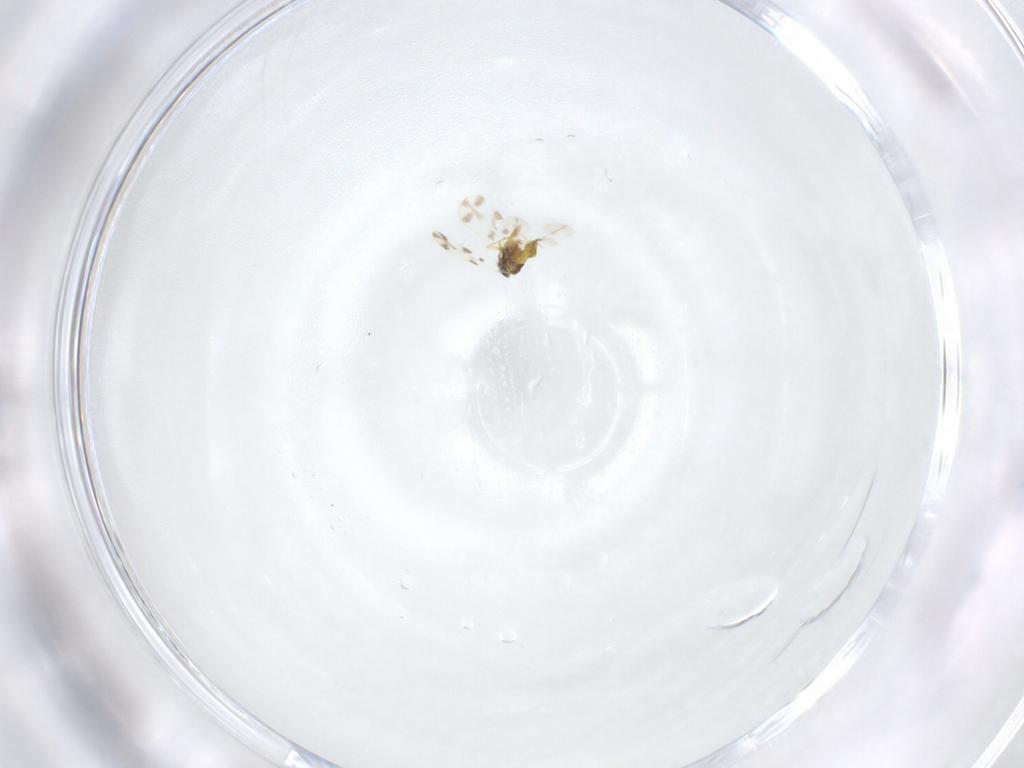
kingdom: Animalia
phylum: Arthropoda
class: Insecta
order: Hemiptera
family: Aleyrodidae
